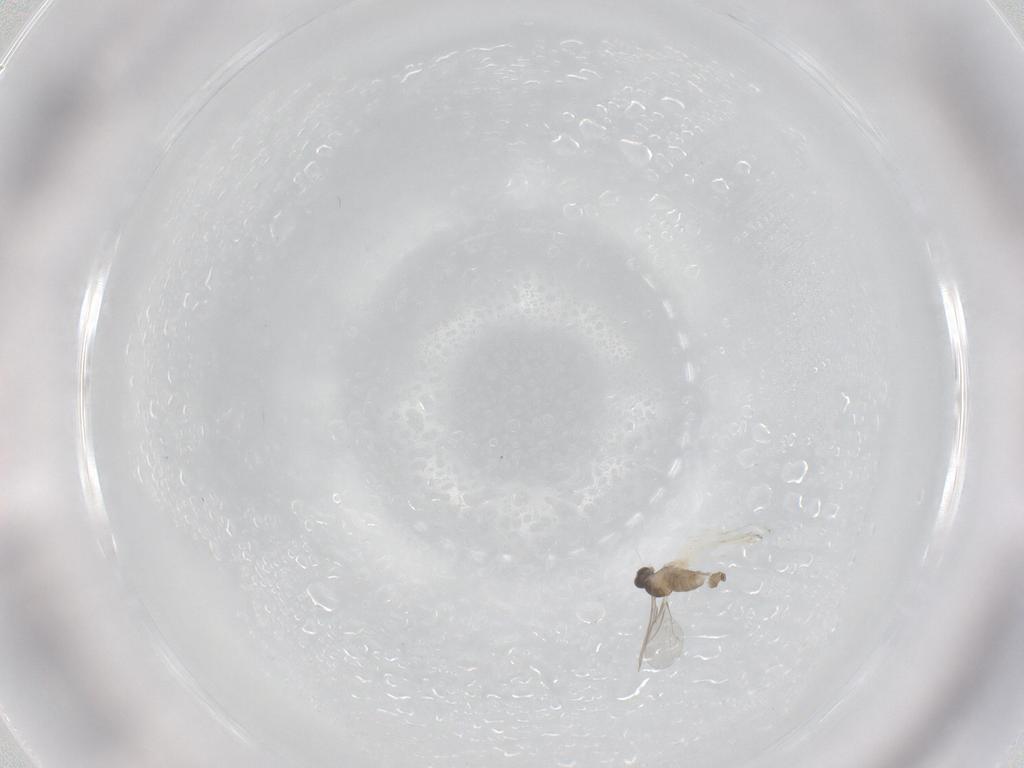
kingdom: Animalia
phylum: Arthropoda
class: Insecta
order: Diptera
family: Cecidomyiidae
